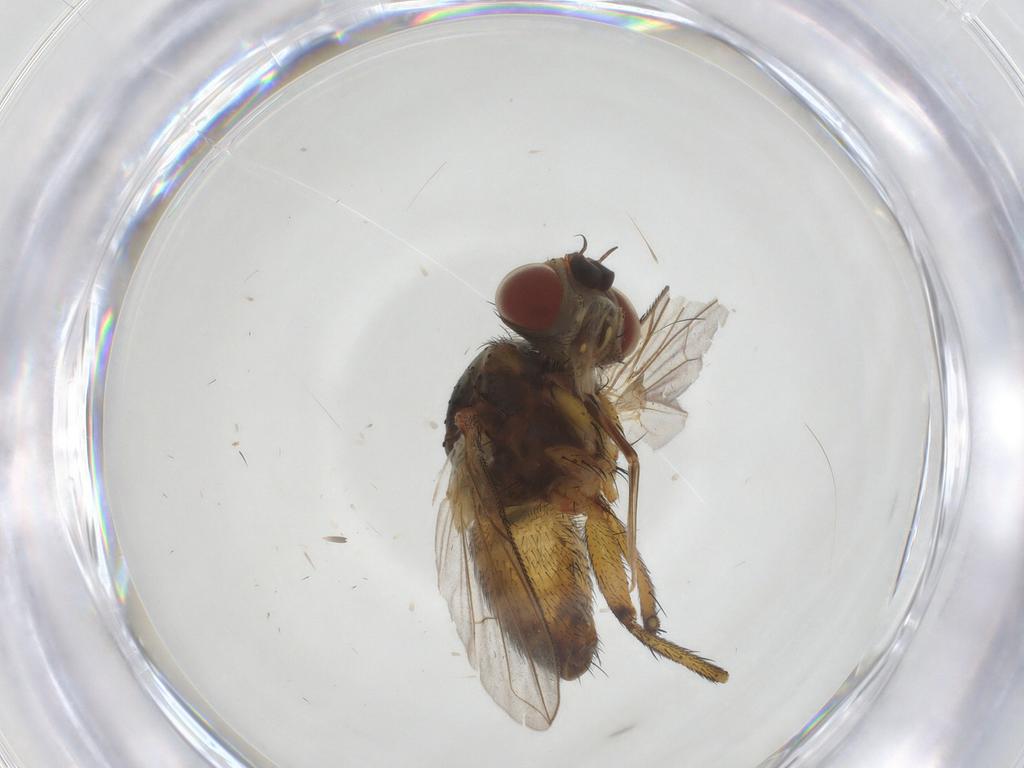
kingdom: Animalia
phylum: Arthropoda
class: Insecta
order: Diptera
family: Tachinidae
